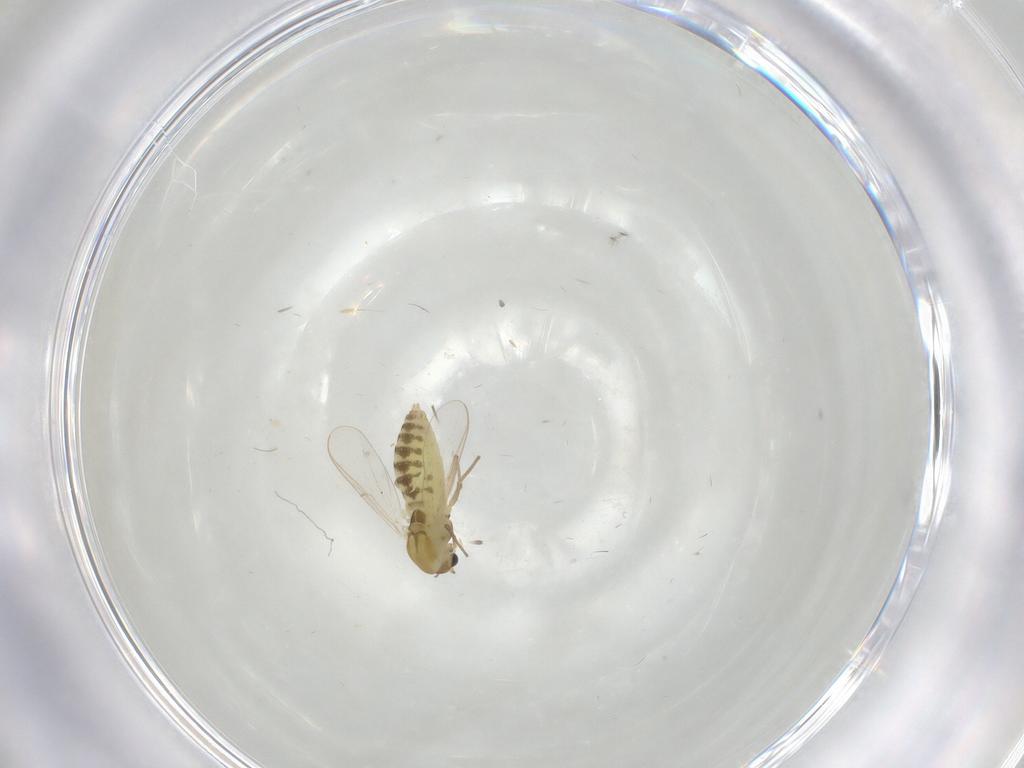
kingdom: Animalia
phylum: Arthropoda
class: Insecta
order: Diptera
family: Chironomidae
